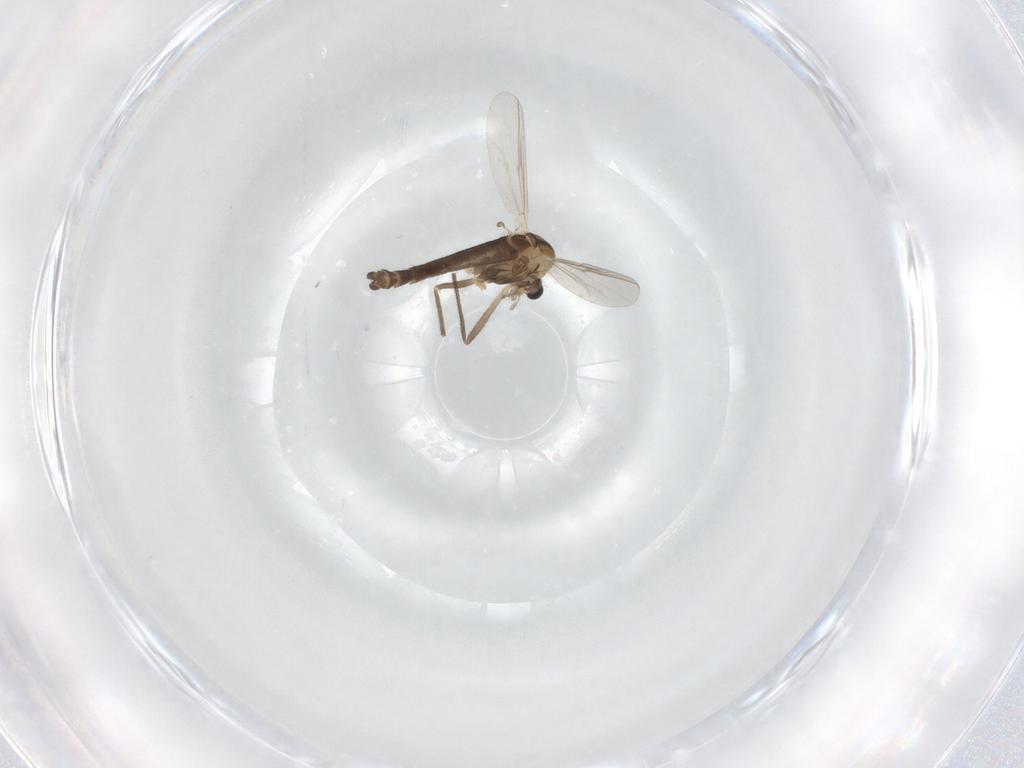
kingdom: Animalia
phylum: Arthropoda
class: Insecta
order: Diptera
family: Chironomidae
